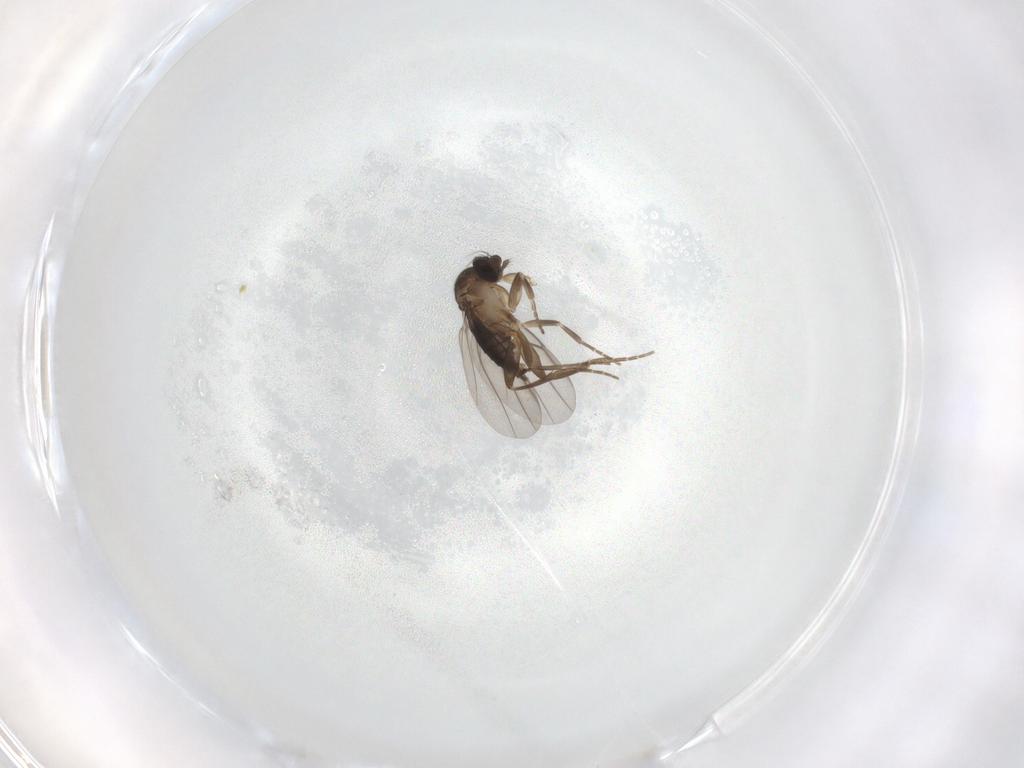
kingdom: Animalia
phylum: Arthropoda
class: Insecta
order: Diptera
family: Phoridae
